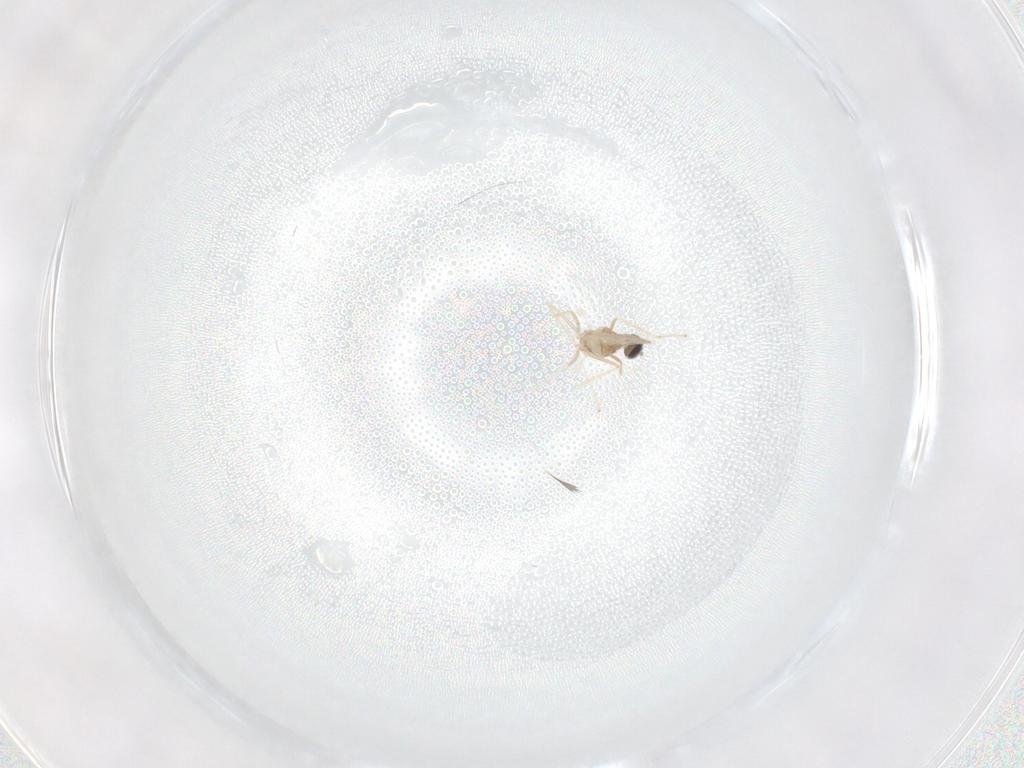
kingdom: Animalia
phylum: Arthropoda
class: Insecta
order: Diptera
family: Cecidomyiidae
